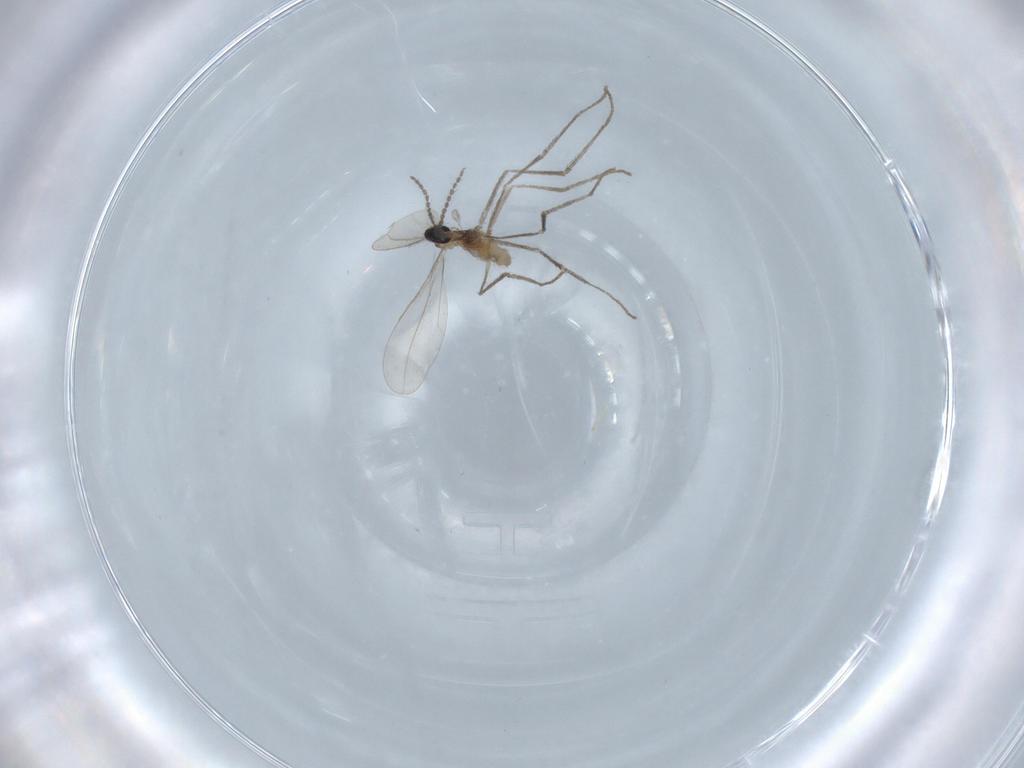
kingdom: Animalia
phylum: Arthropoda
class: Insecta
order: Diptera
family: Cecidomyiidae
